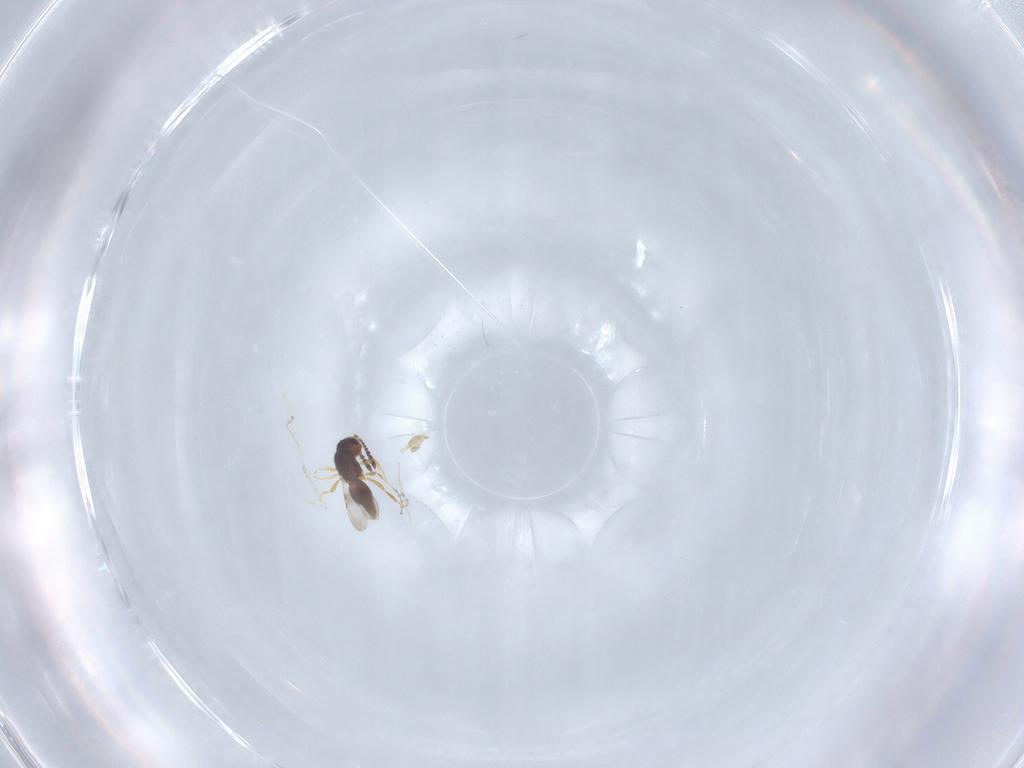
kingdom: Animalia
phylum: Arthropoda
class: Insecta
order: Hymenoptera
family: Ceraphronidae
